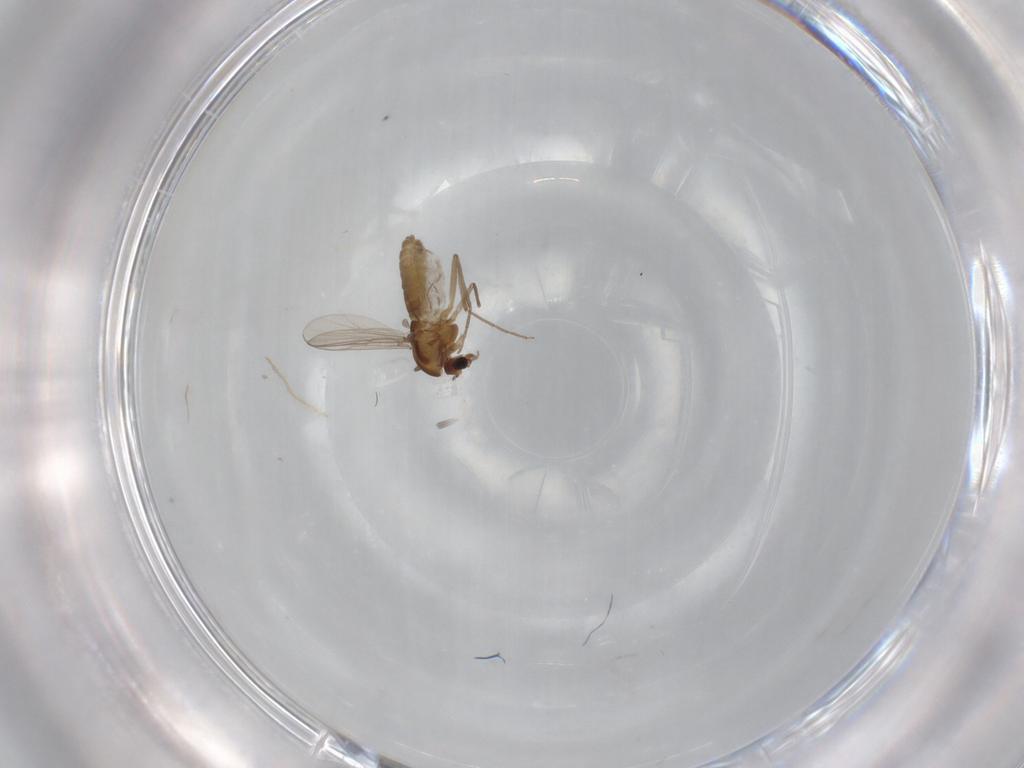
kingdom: Animalia
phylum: Arthropoda
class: Insecta
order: Diptera
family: Chironomidae
